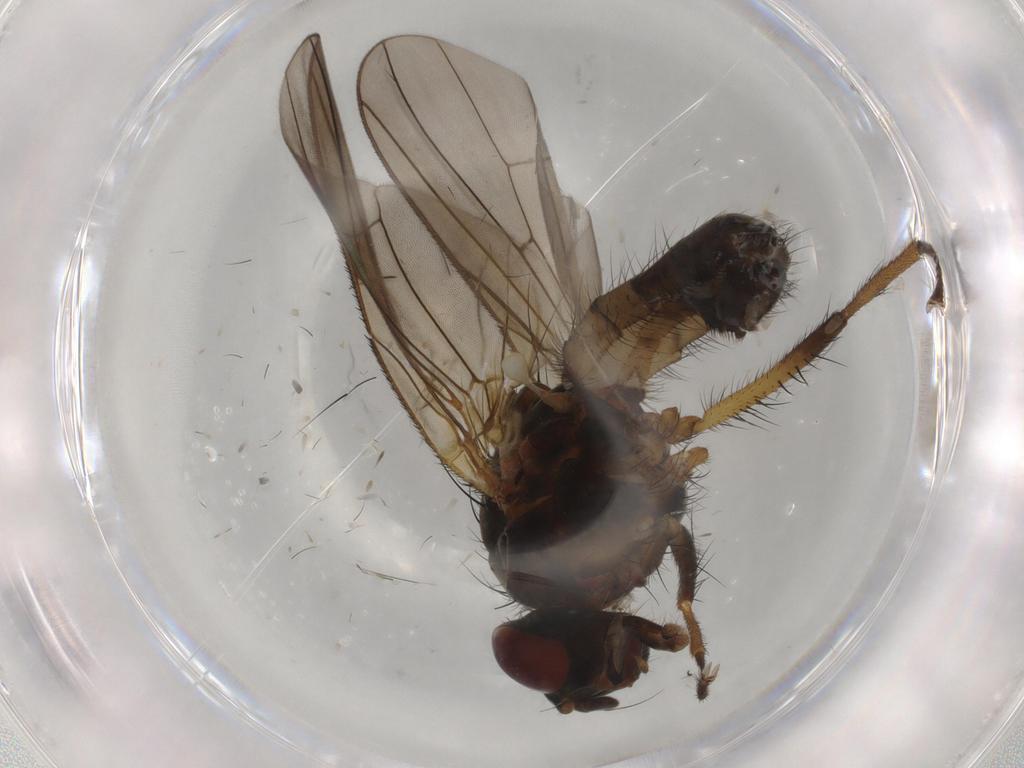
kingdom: Animalia
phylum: Arthropoda
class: Insecta
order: Diptera
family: Anthomyiidae
